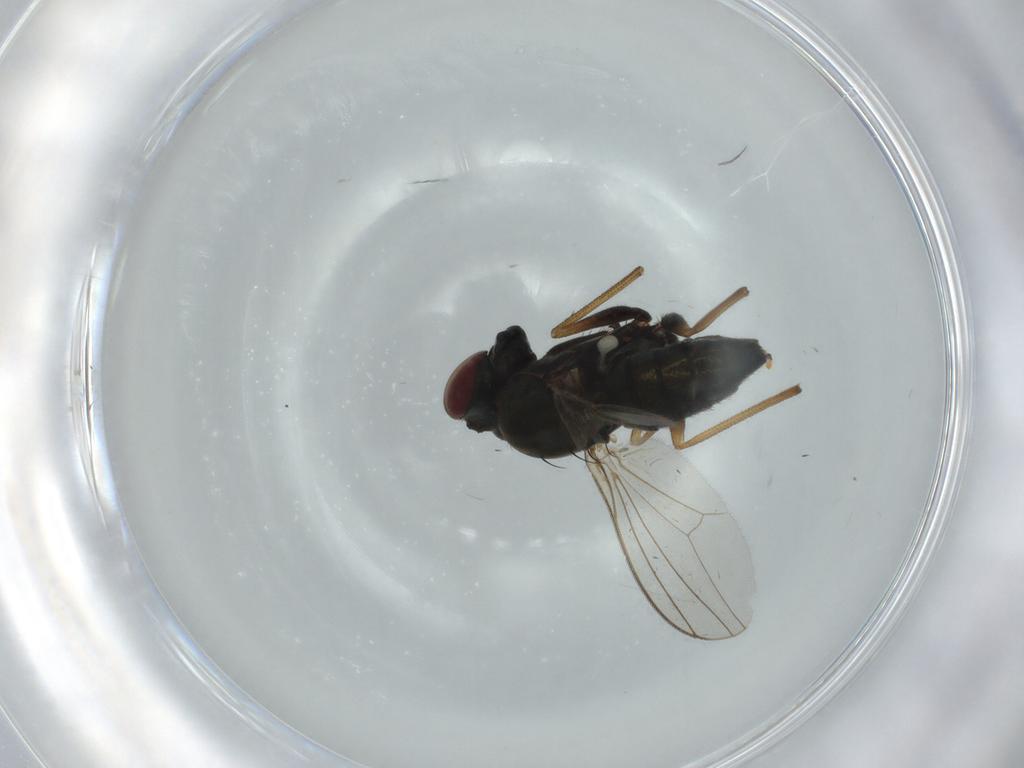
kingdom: Animalia
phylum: Arthropoda
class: Insecta
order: Diptera
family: Dolichopodidae
